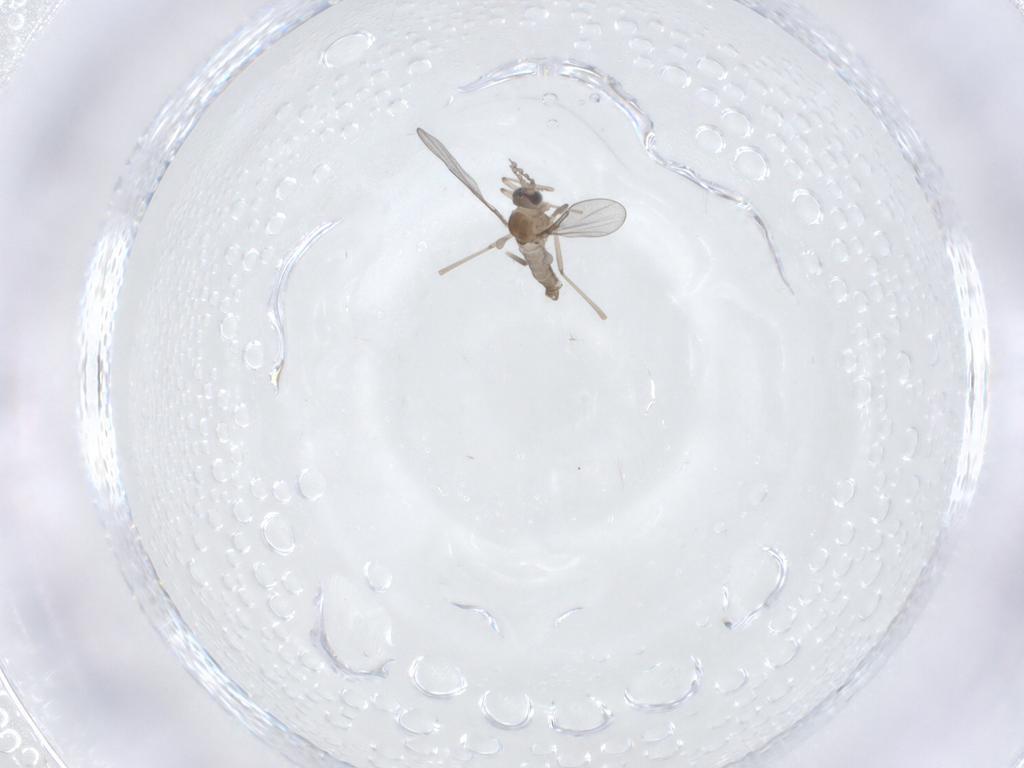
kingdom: Animalia
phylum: Arthropoda
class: Insecta
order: Diptera
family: Cecidomyiidae
